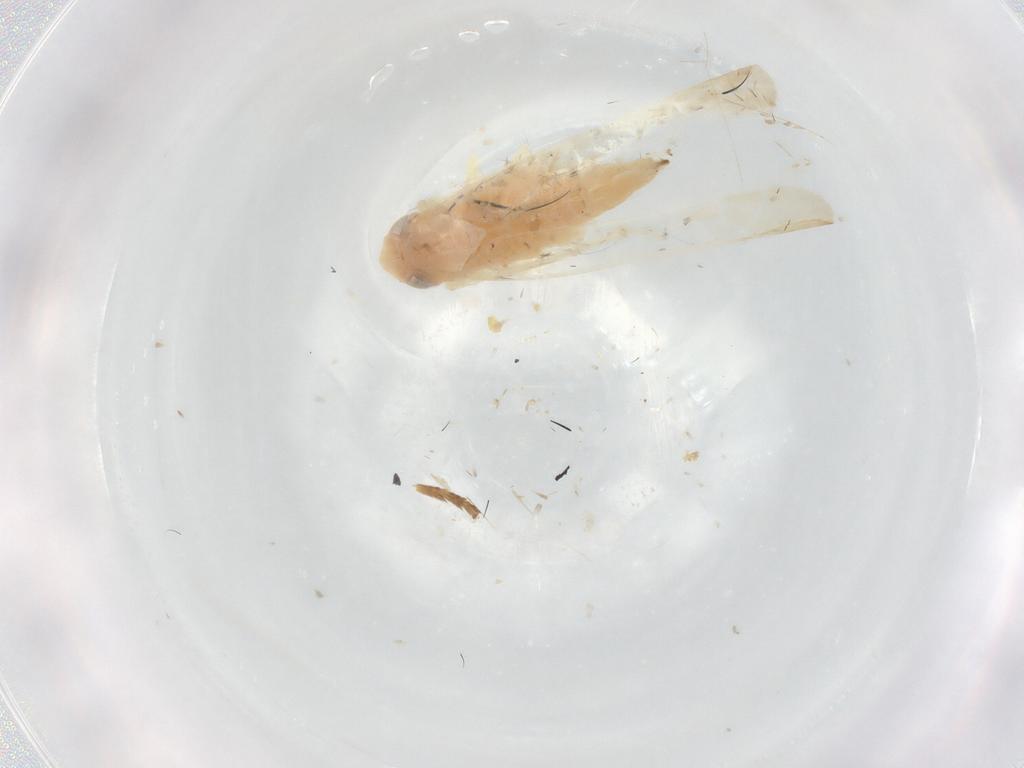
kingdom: Animalia
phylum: Arthropoda
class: Insecta
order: Hemiptera
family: Cicadellidae
